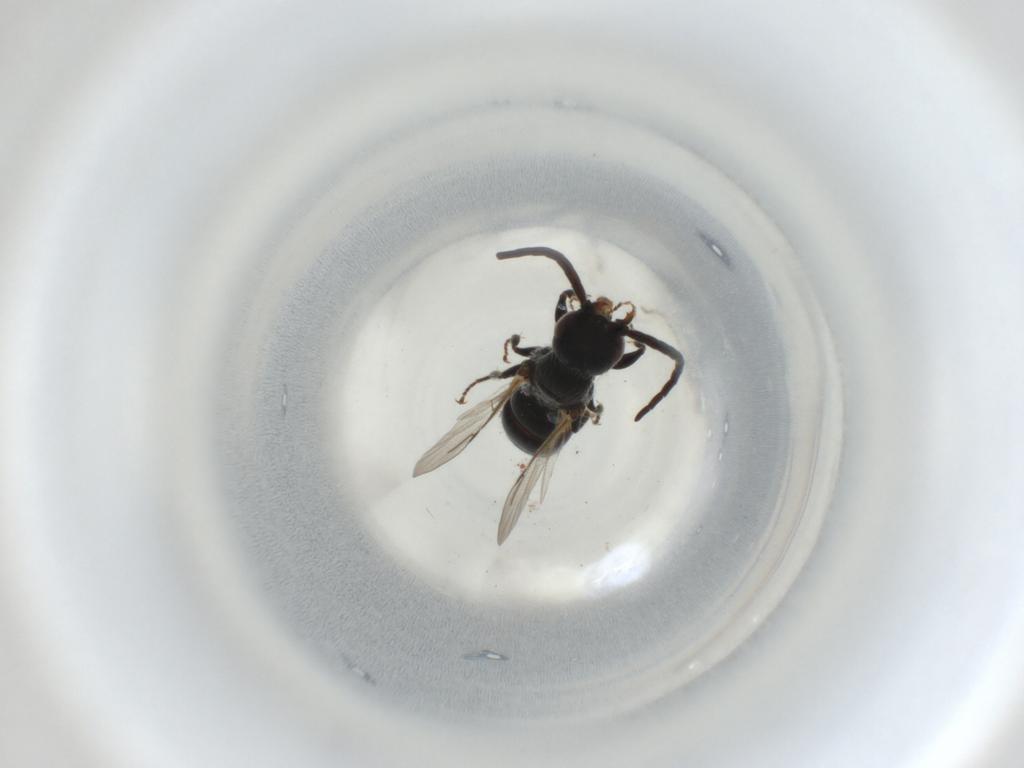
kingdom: Animalia
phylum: Arthropoda
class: Insecta
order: Hymenoptera
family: Bethylidae
